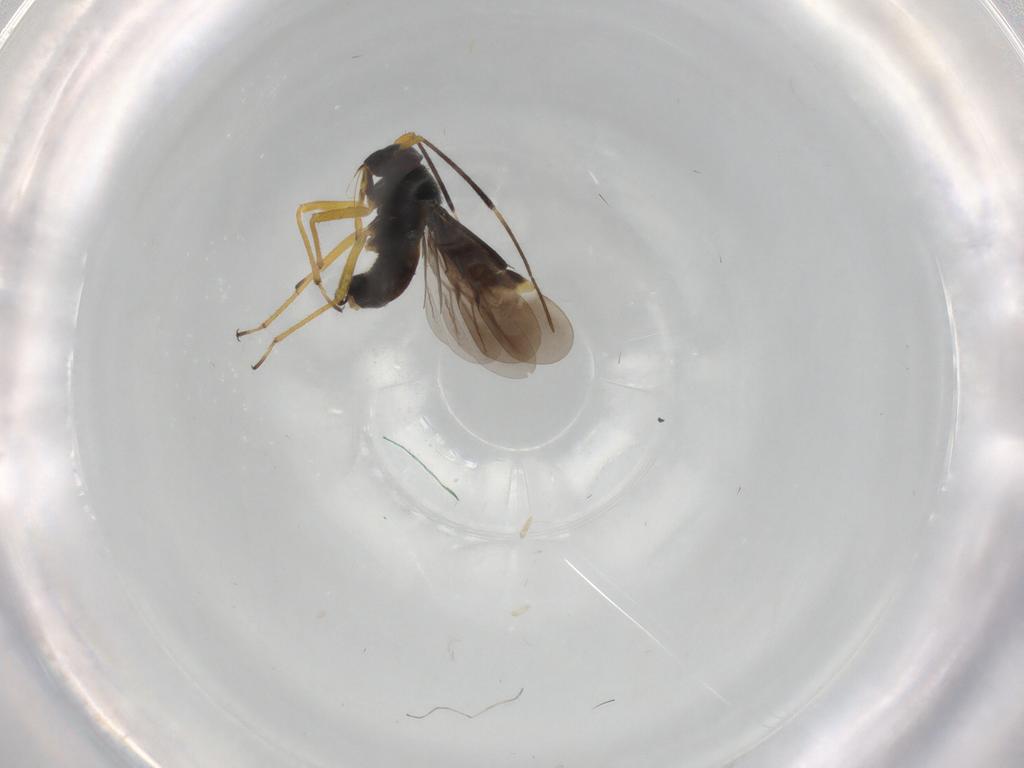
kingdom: Animalia
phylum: Arthropoda
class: Insecta
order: Hemiptera
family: Miridae
